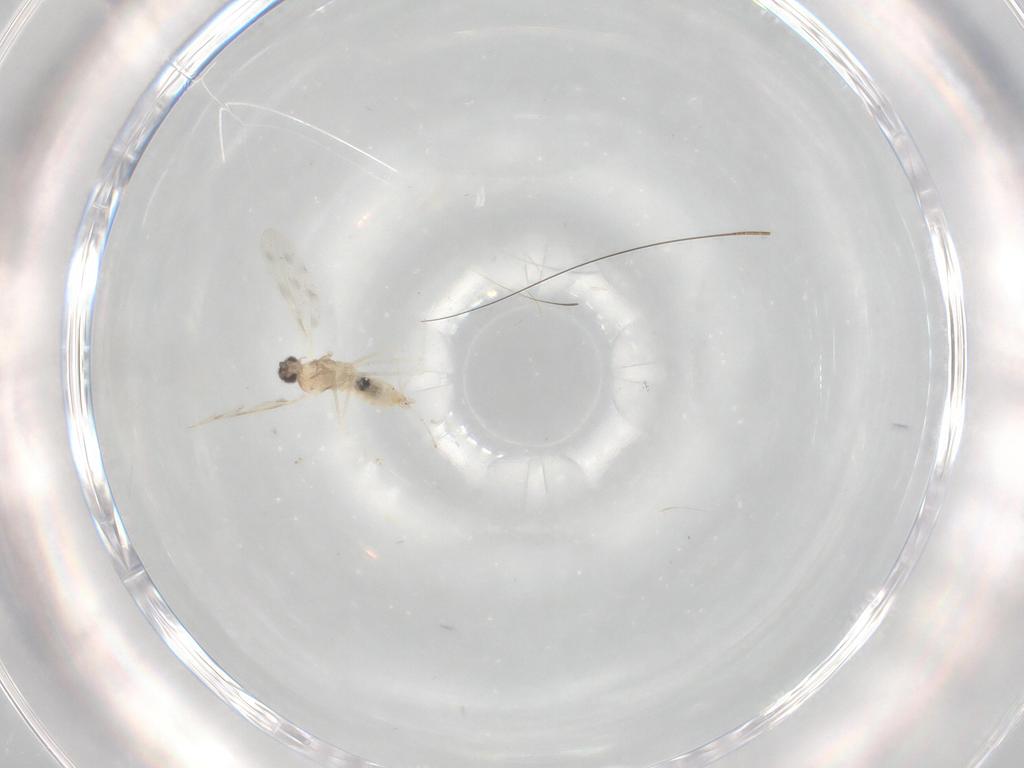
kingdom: Animalia
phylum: Arthropoda
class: Insecta
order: Diptera
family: Cecidomyiidae
